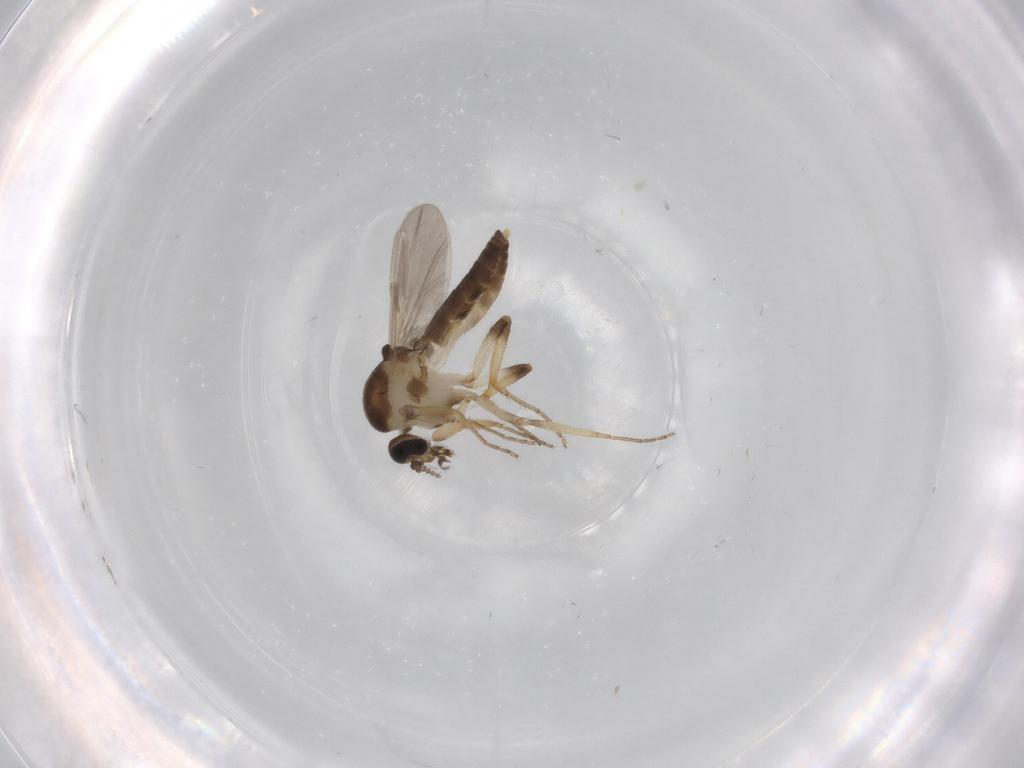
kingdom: Animalia
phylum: Arthropoda
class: Insecta
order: Diptera
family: Ceratopogonidae
